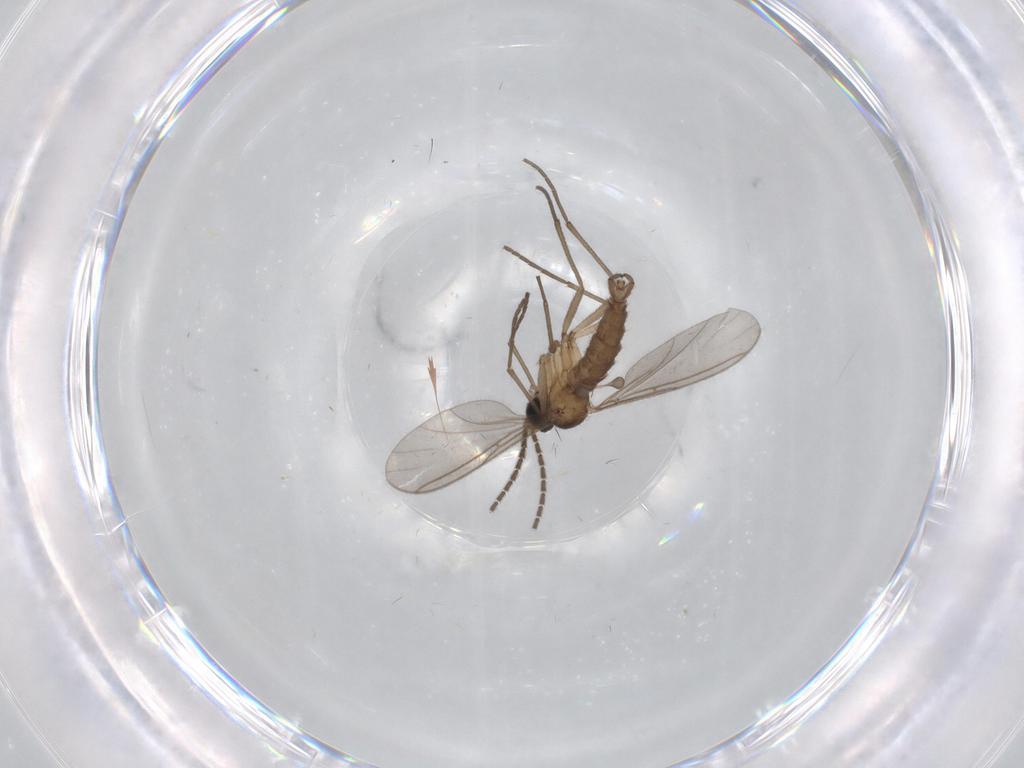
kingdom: Animalia
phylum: Arthropoda
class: Insecta
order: Diptera
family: Sciaridae
